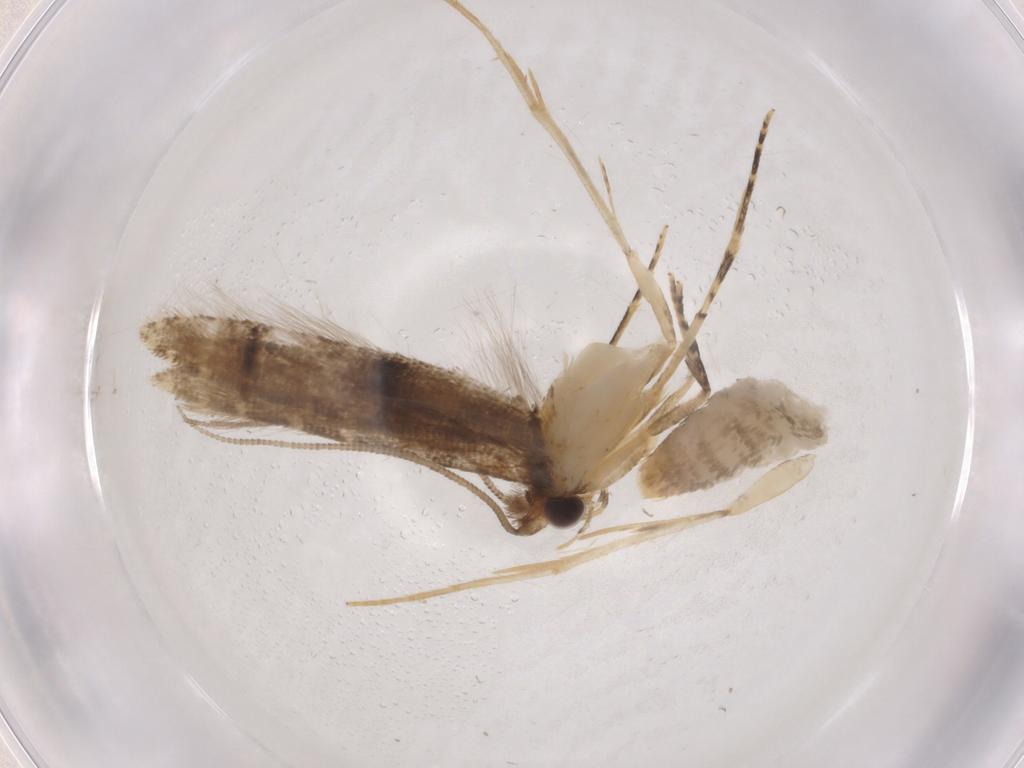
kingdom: Animalia
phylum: Arthropoda
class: Insecta
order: Lepidoptera
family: Tineidae
